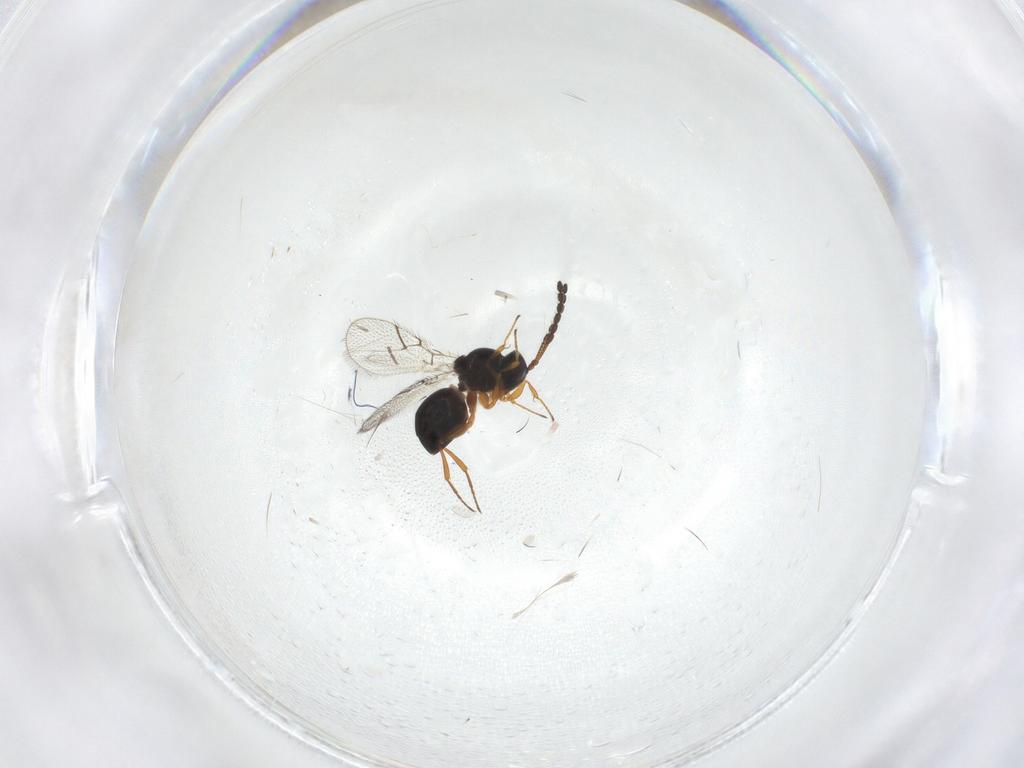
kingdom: Animalia
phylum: Arthropoda
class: Insecta
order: Hymenoptera
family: Figitidae
